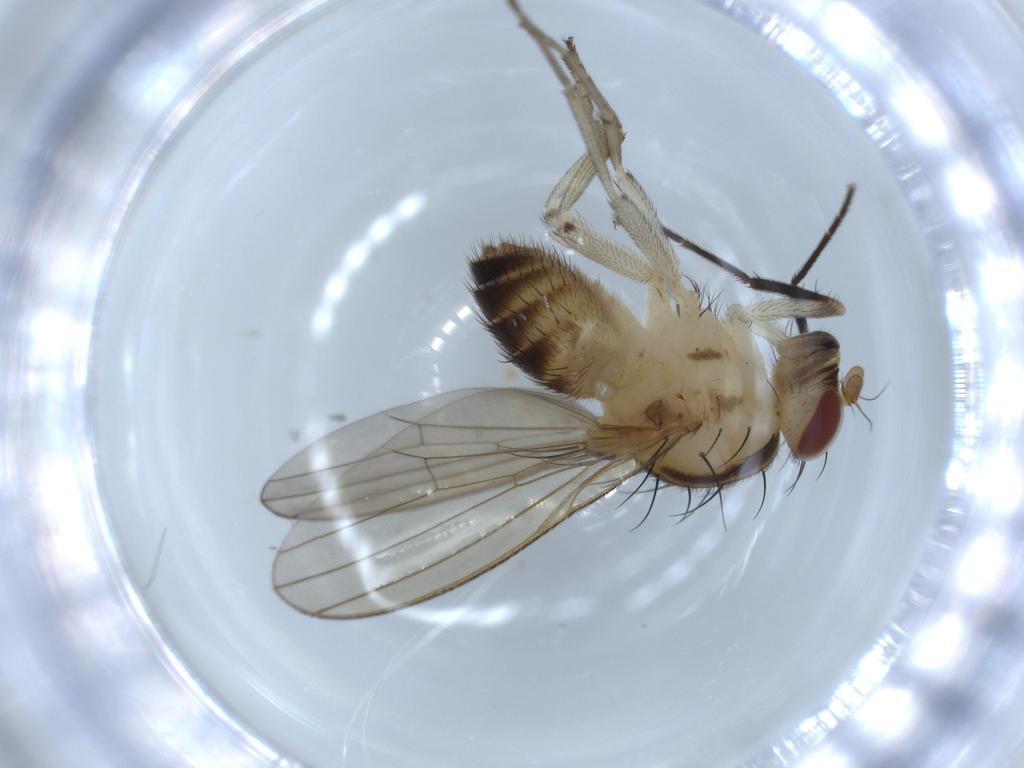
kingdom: Animalia
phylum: Arthropoda
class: Insecta
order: Diptera
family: Lauxaniidae
